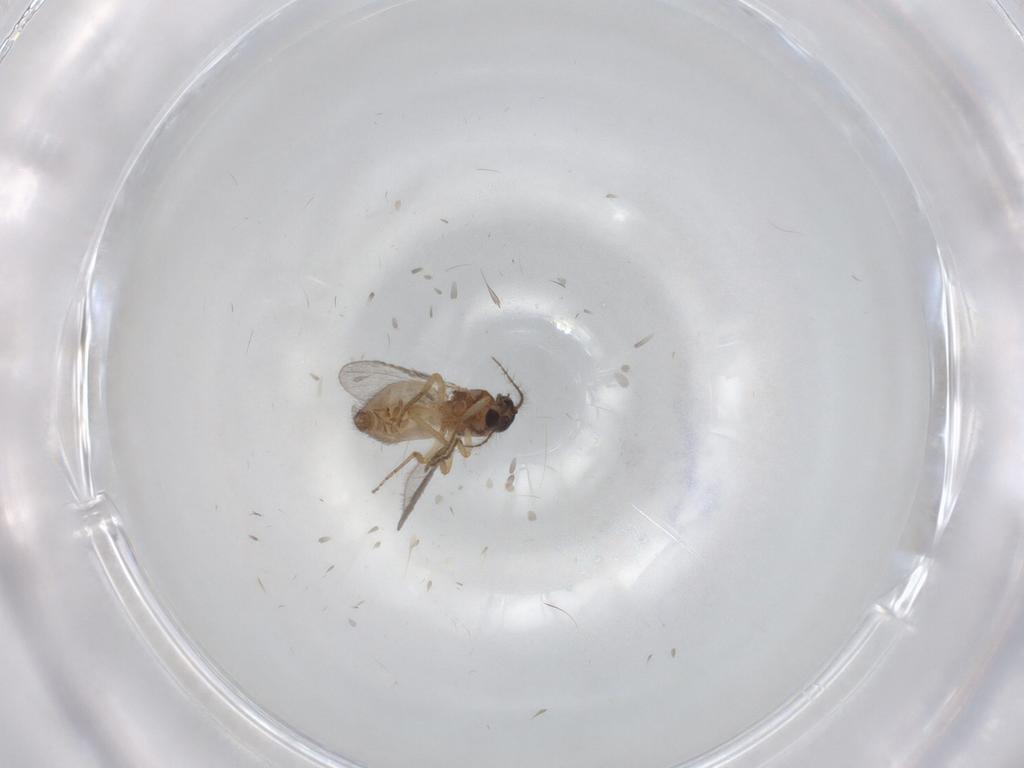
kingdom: Animalia
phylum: Arthropoda
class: Insecta
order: Diptera
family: Ceratopogonidae
